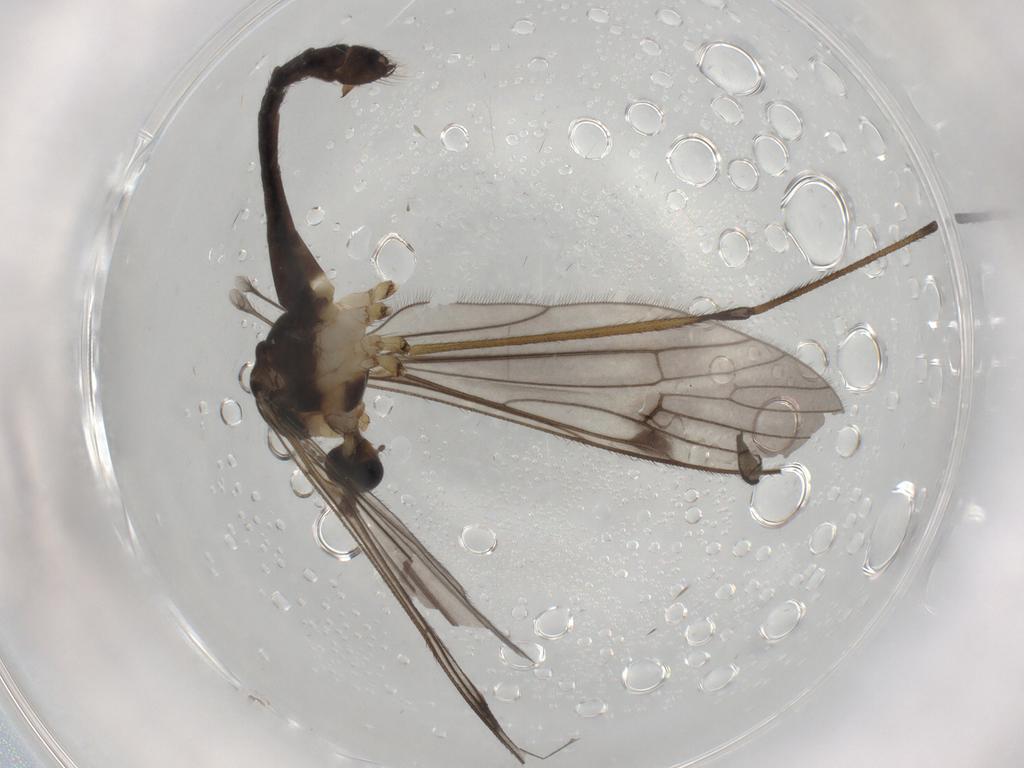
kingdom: Animalia
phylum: Arthropoda
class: Insecta
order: Diptera
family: Limoniidae
